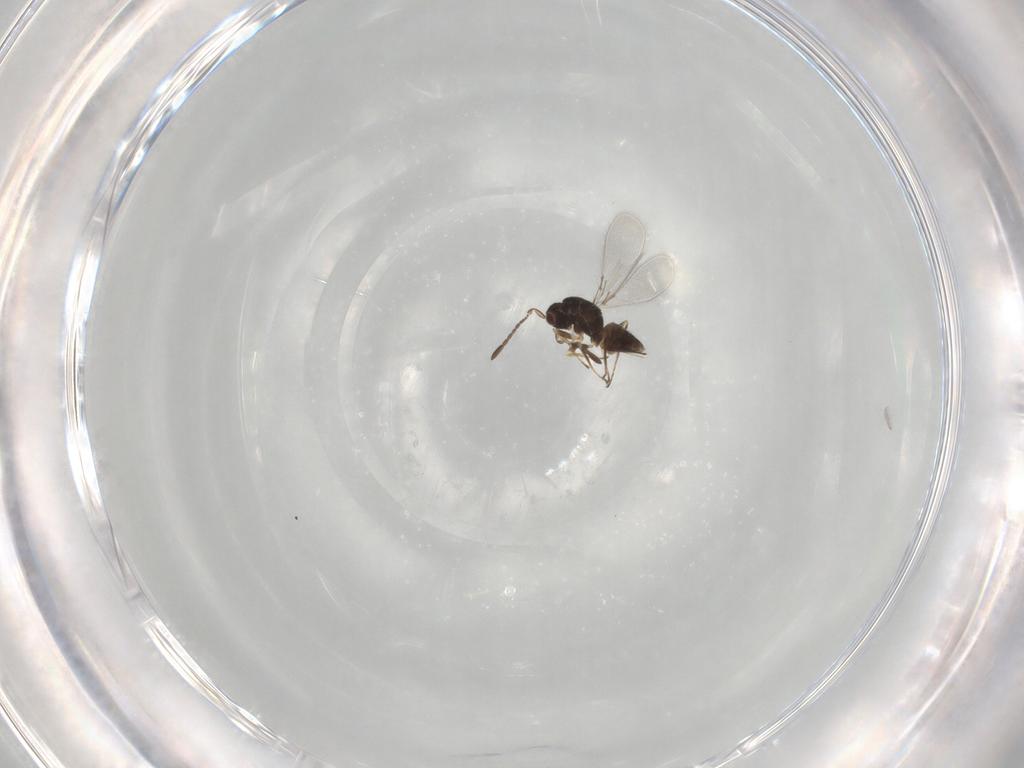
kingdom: Animalia
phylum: Arthropoda
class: Insecta
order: Hymenoptera
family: Mymaridae
